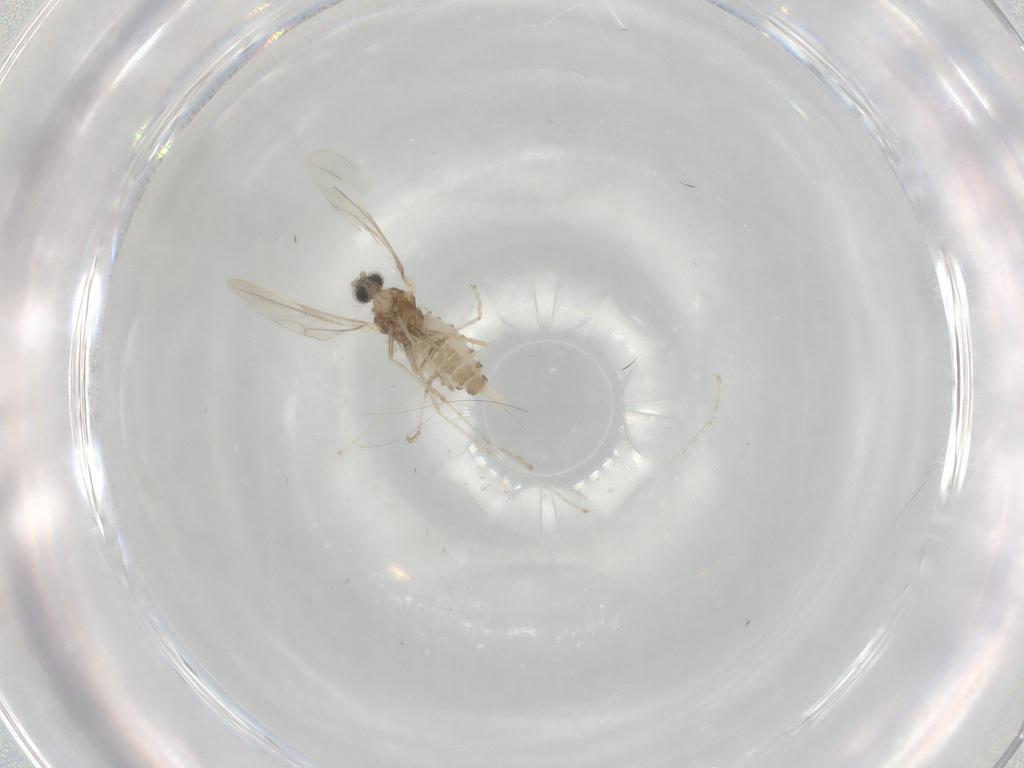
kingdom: Animalia
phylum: Arthropoda
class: Insecta
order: Diptera
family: Cecidomyiidae
